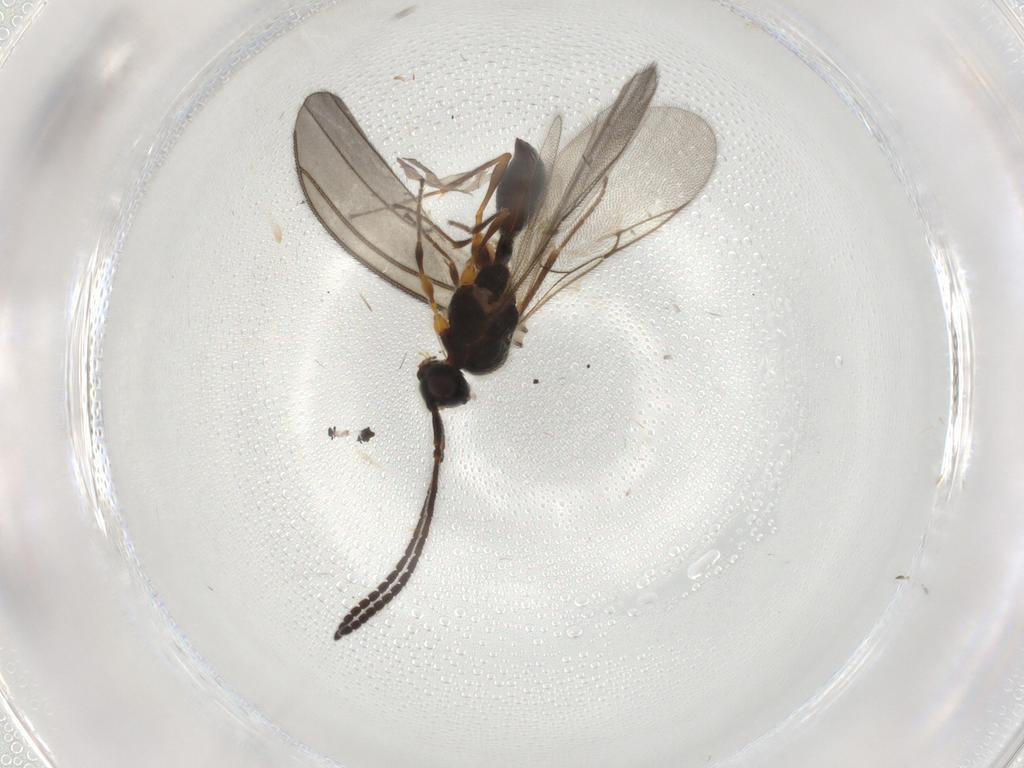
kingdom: Animalia
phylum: Arthropoda
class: Insecta
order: Hymenoptera
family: Diapriidae
